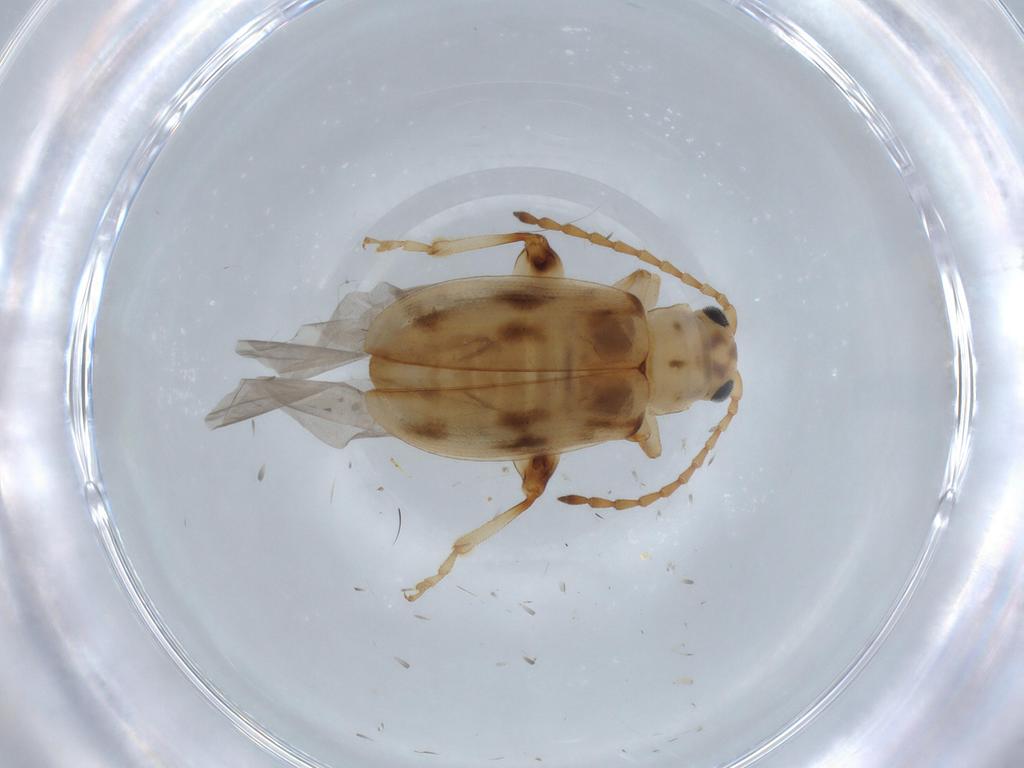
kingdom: Animalia
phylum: Arthropoda
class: Insecta
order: Coleoptera
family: Chrysomelidae
